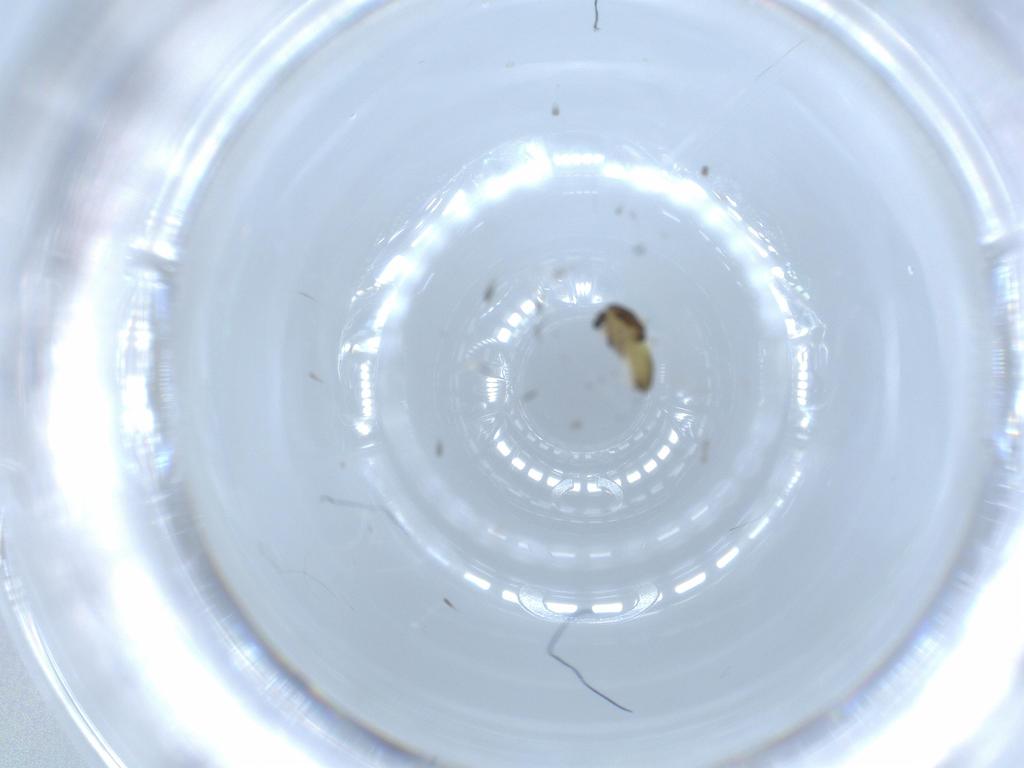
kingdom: Animalia
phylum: Arthropoda
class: Insecta
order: Diptera
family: Chironomidae
